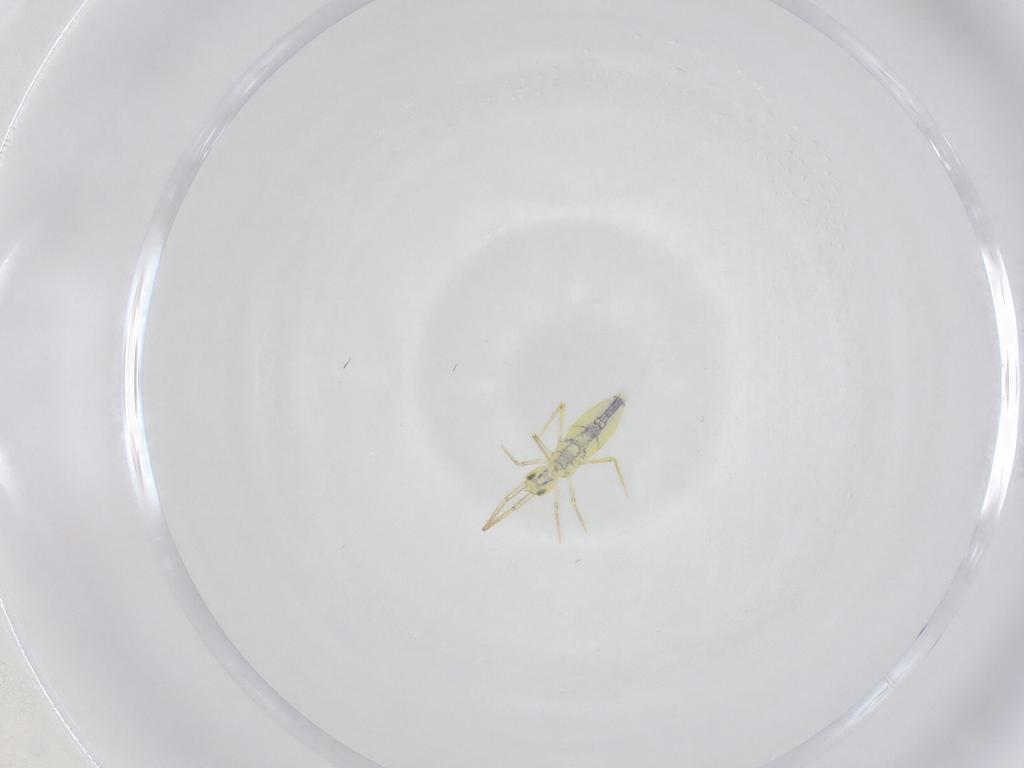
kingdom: Animalia
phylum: Arthropoda
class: Collembola
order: Entomobryomorpha
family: Entomobryidae
